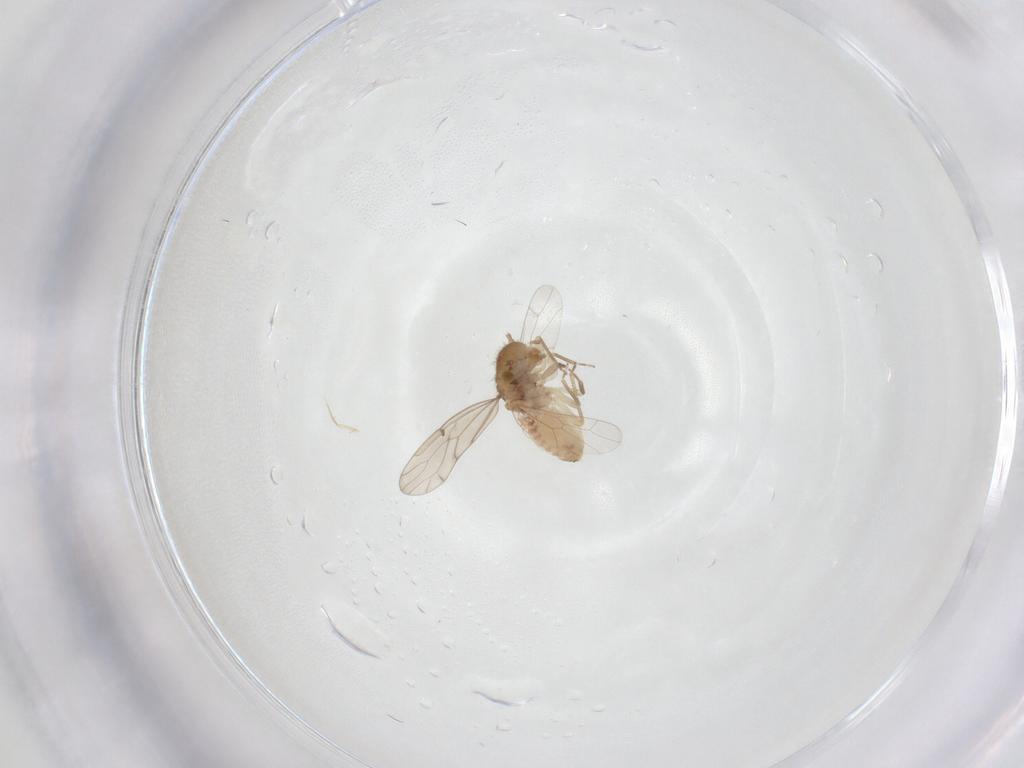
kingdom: Animalia
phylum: Arthropoda
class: Insecta
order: Psocodea
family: Ectopsocidae
